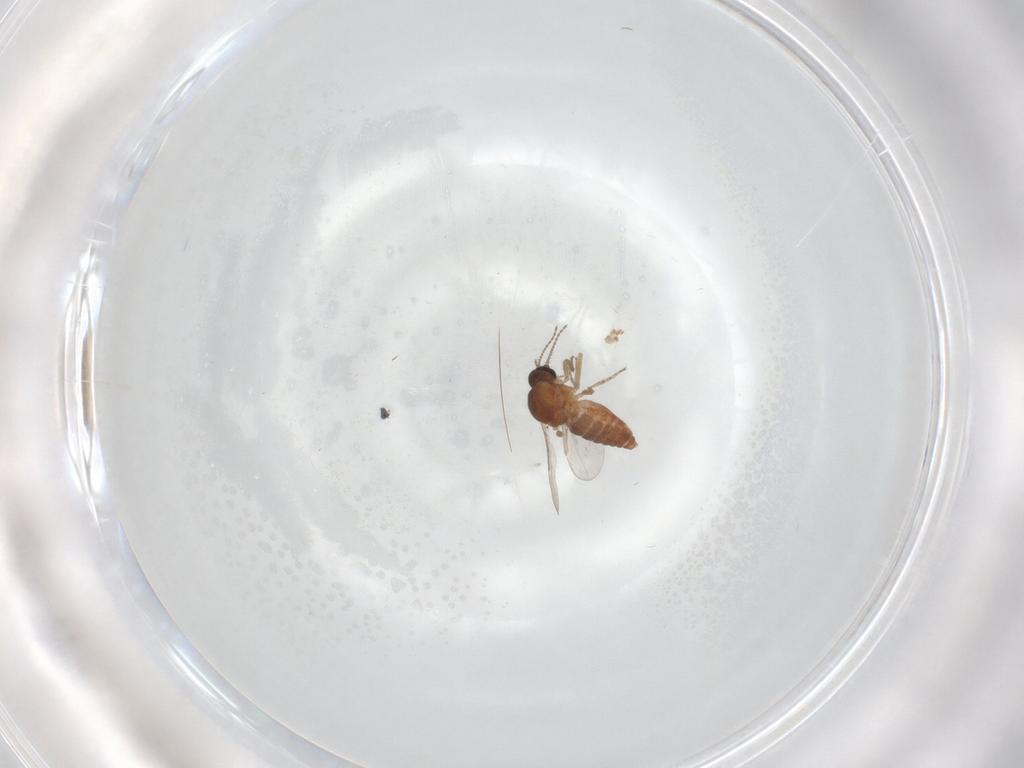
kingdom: Animalia
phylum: Arthropoda
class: Insecta
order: Diptera
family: Ceratopogonidae
